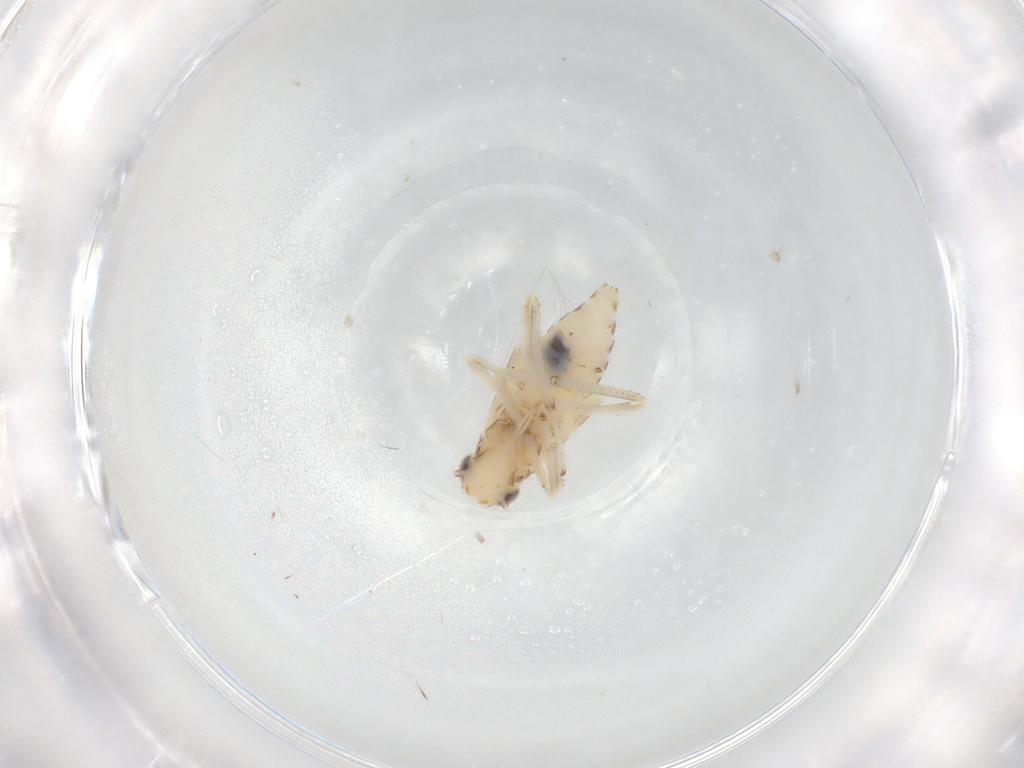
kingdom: Animalia
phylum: Arthropoda
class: Insecta
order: Hemiptera
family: Cicadellidae
